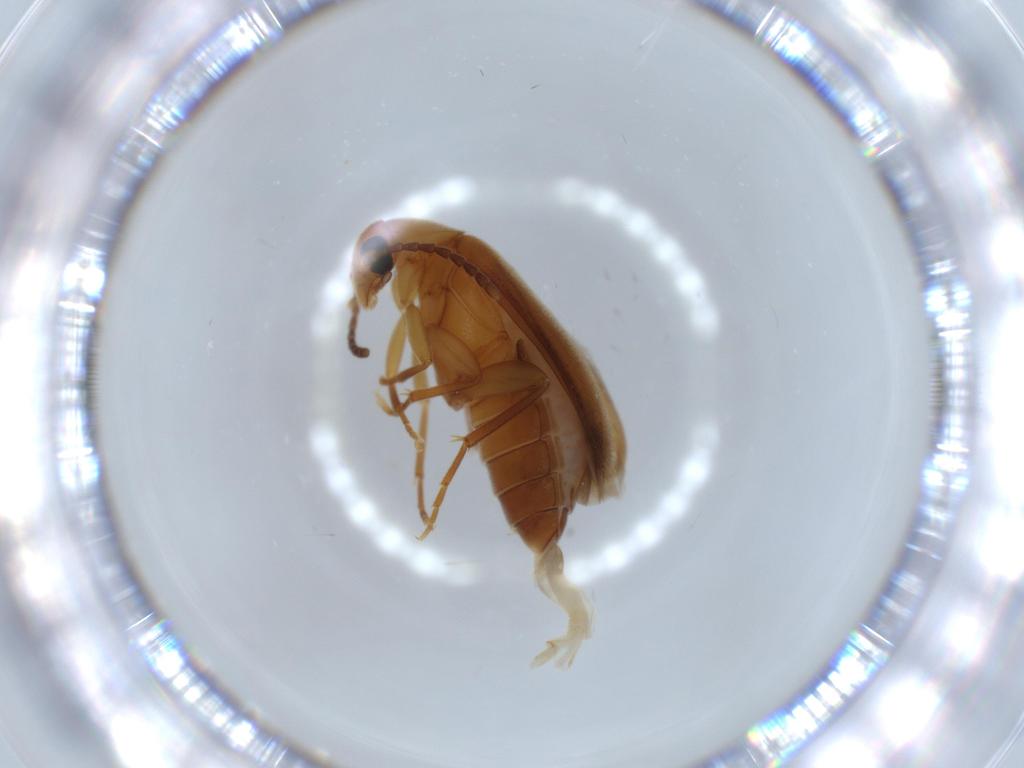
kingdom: Animalia
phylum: Arthropoda
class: Insecta
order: Coleoptera
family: Scraptiidae
